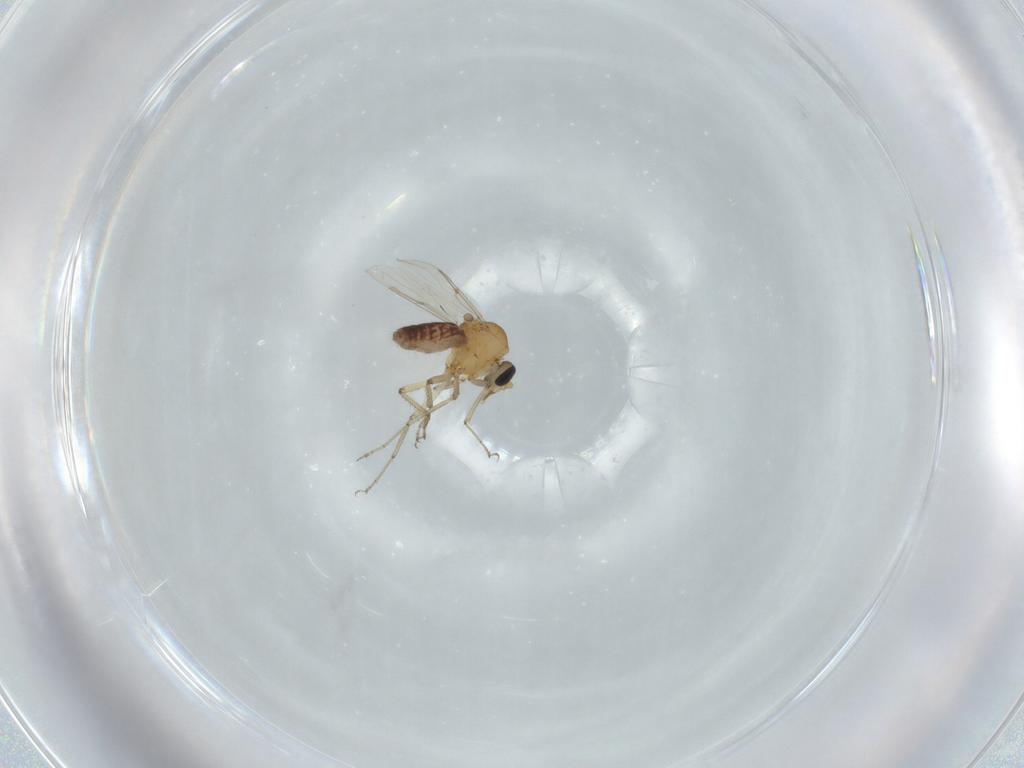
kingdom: Animalia
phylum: Arthropoda
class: Insecta
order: Diptera
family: Ceratopogonidae
